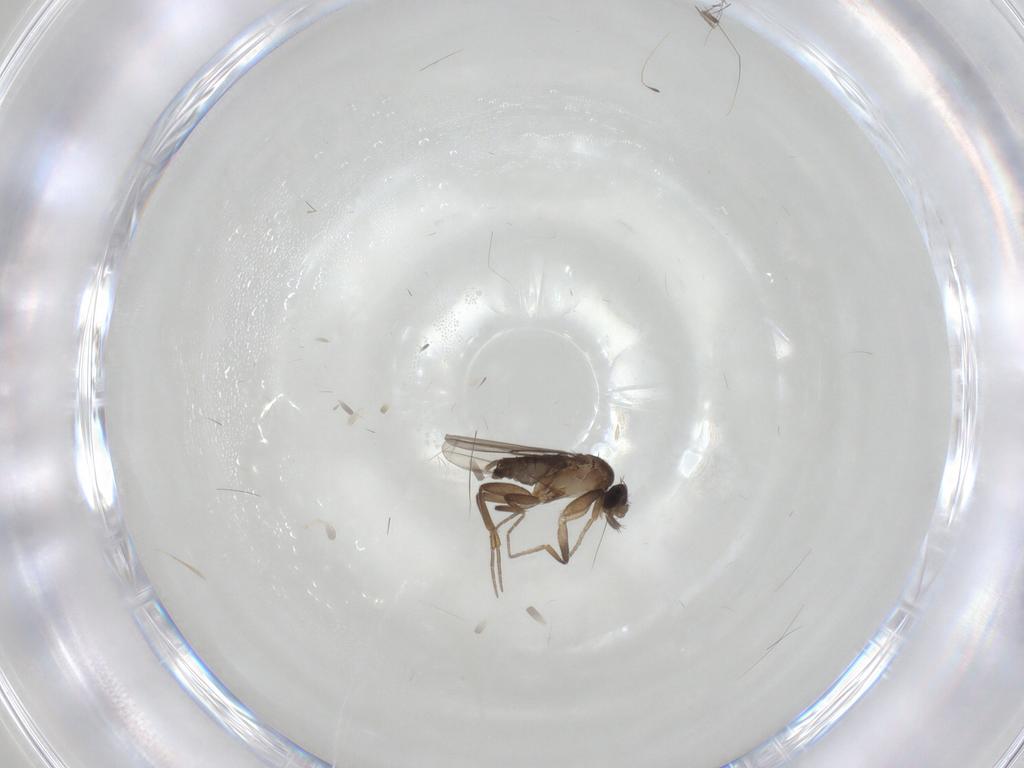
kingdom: Animalia
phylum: Arthropoda
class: Insecta
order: Diptera
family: Phoridae
